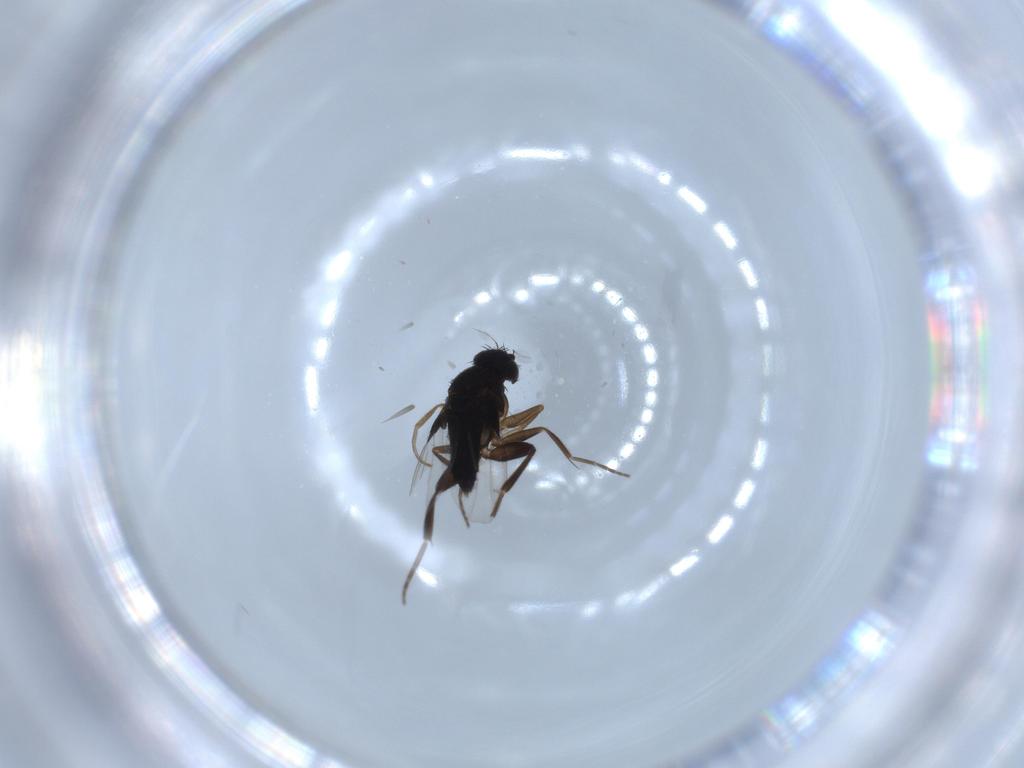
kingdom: Animalia
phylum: Arthropoda
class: Insecta
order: Diptera
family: Phoridae
